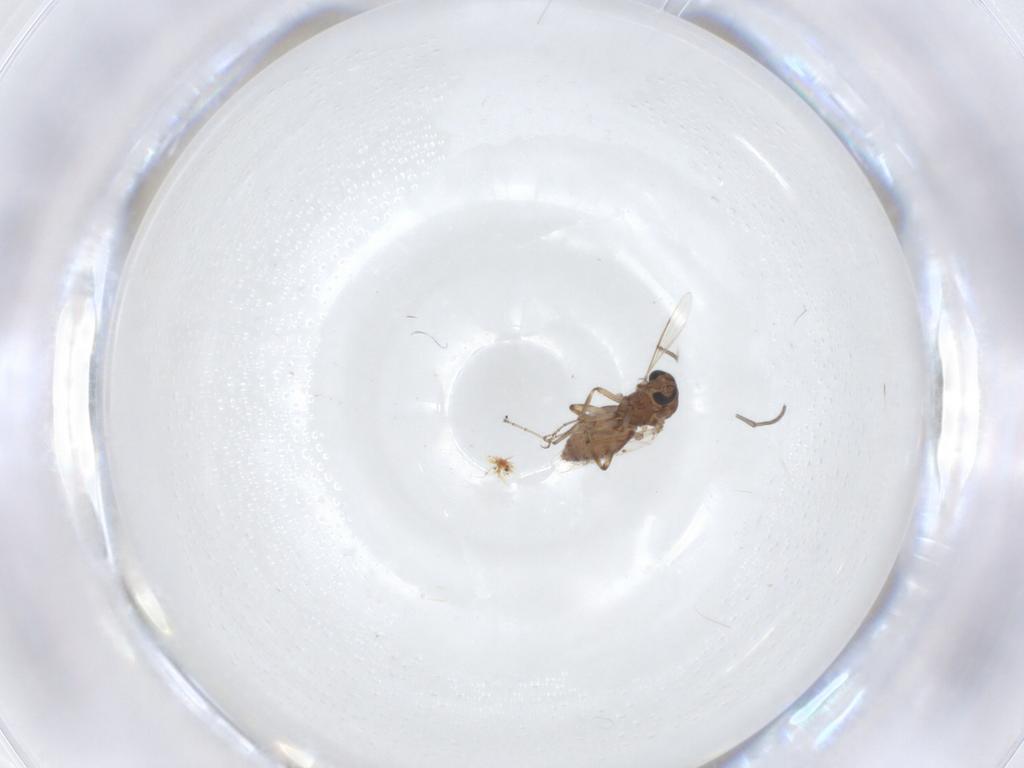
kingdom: Animalia
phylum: Arthropoda
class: Insecta
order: Diptera
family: Ceratopogonidae
